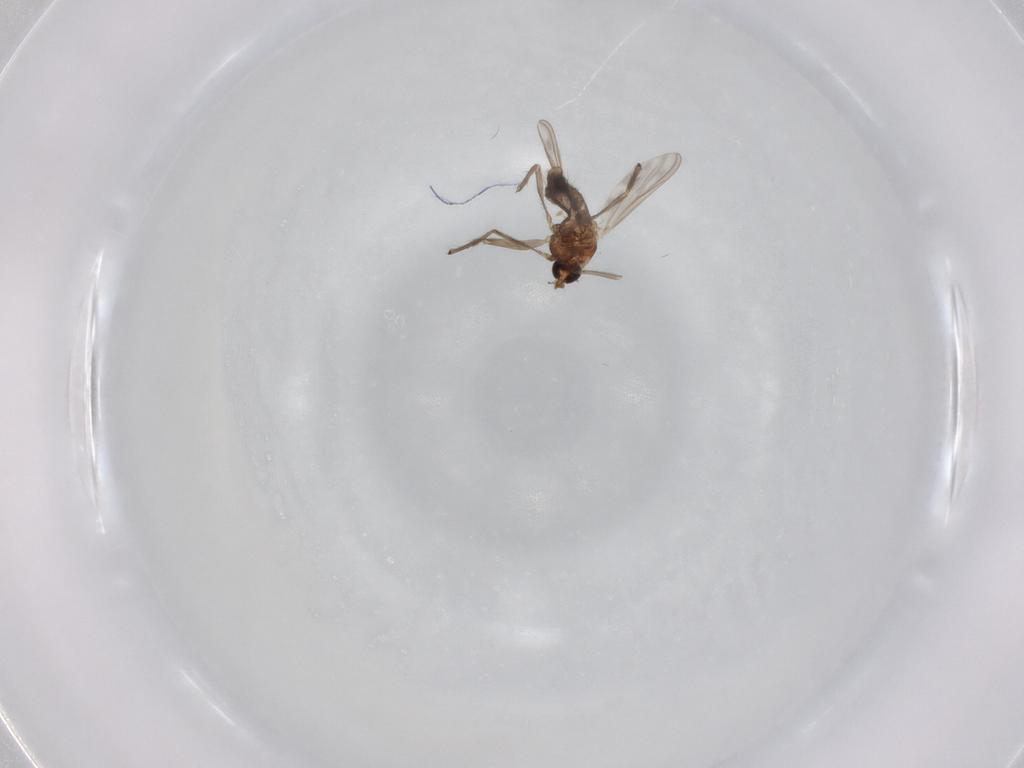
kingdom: Animalia
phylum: Arthropoda
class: Insecta
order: Diptera
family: Chironomidae
